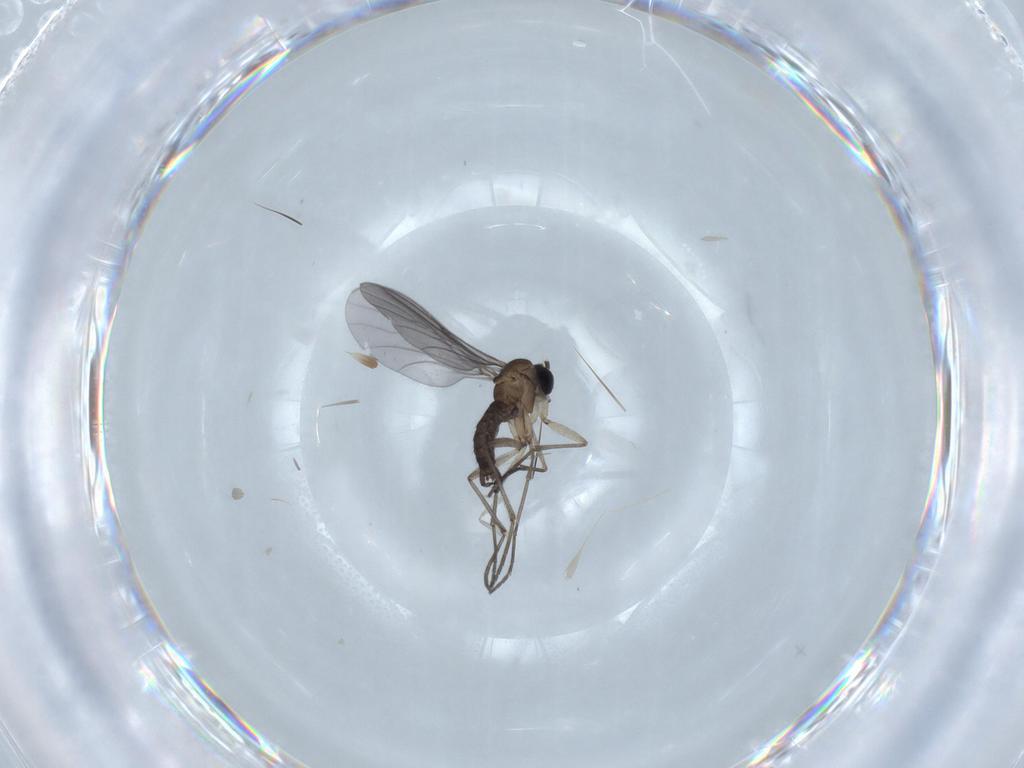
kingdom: Animalia
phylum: Arthropoda
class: Insecta
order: Diptera
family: Sciaridae
